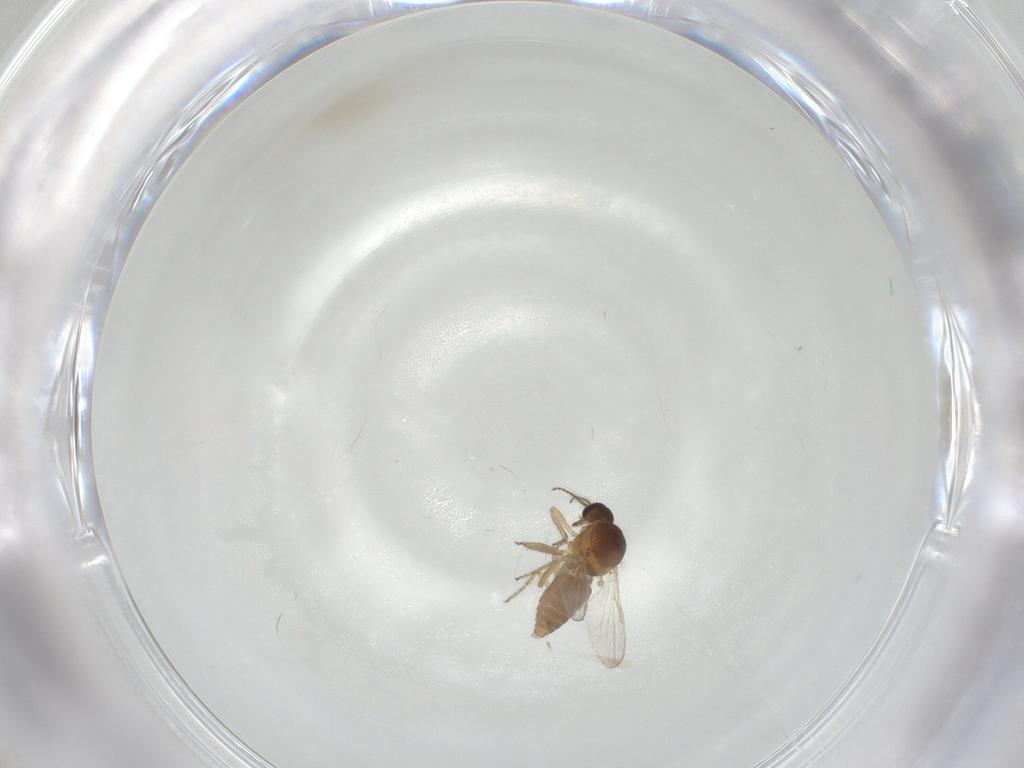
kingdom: Animalia
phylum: Arthropoda
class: Insecta
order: Diptera
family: Ceratopogonidae
